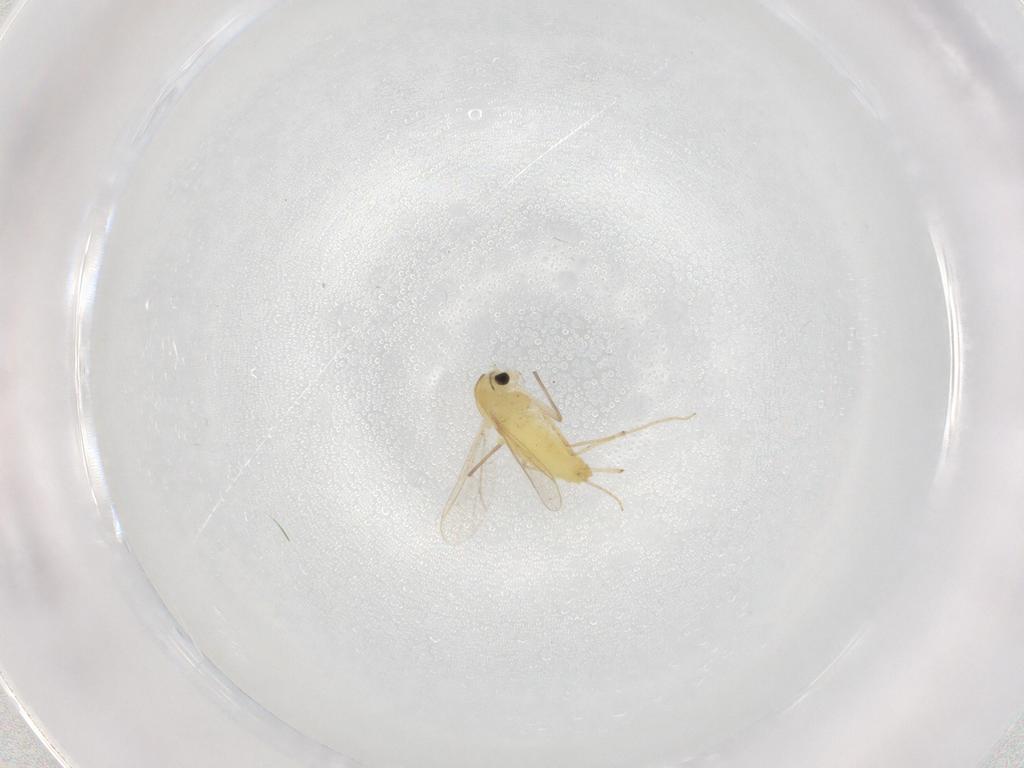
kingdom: Animalia
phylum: Arthropoda
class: Insecta
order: Diptera
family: Chironomidae
